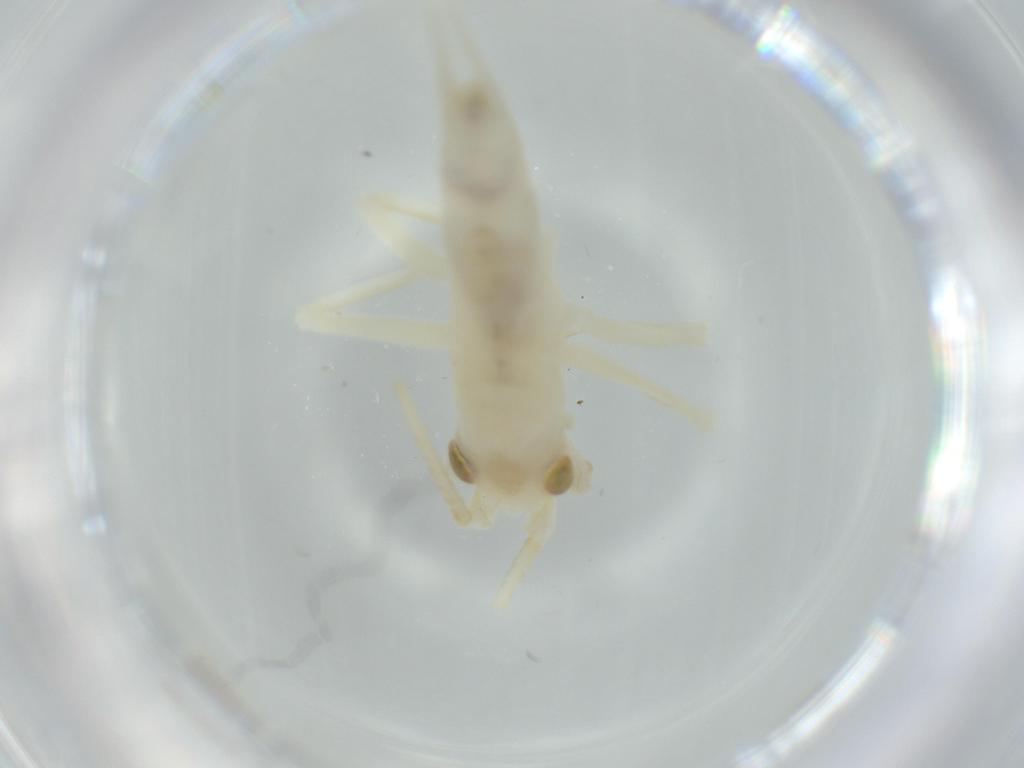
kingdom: Animalia
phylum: Arthropoda
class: Insecta
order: Orthoptera
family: Trigonidiidae
